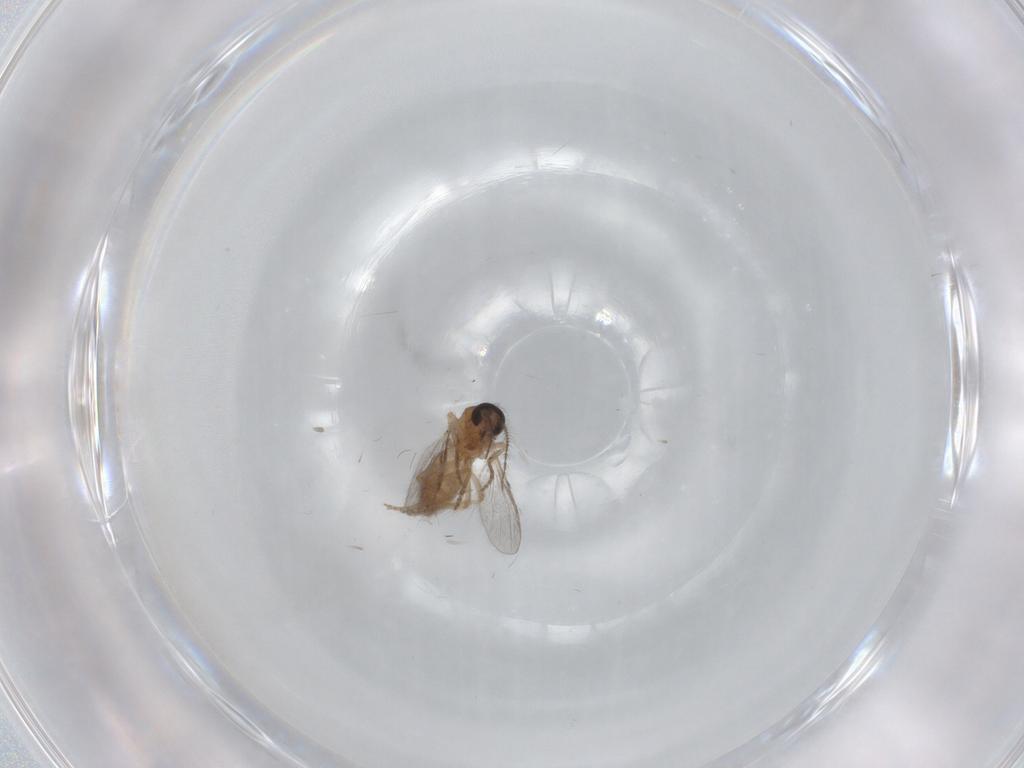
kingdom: Animalia
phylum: Arthropoda
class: Insecta
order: Diptera
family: Ceratopogonidae
